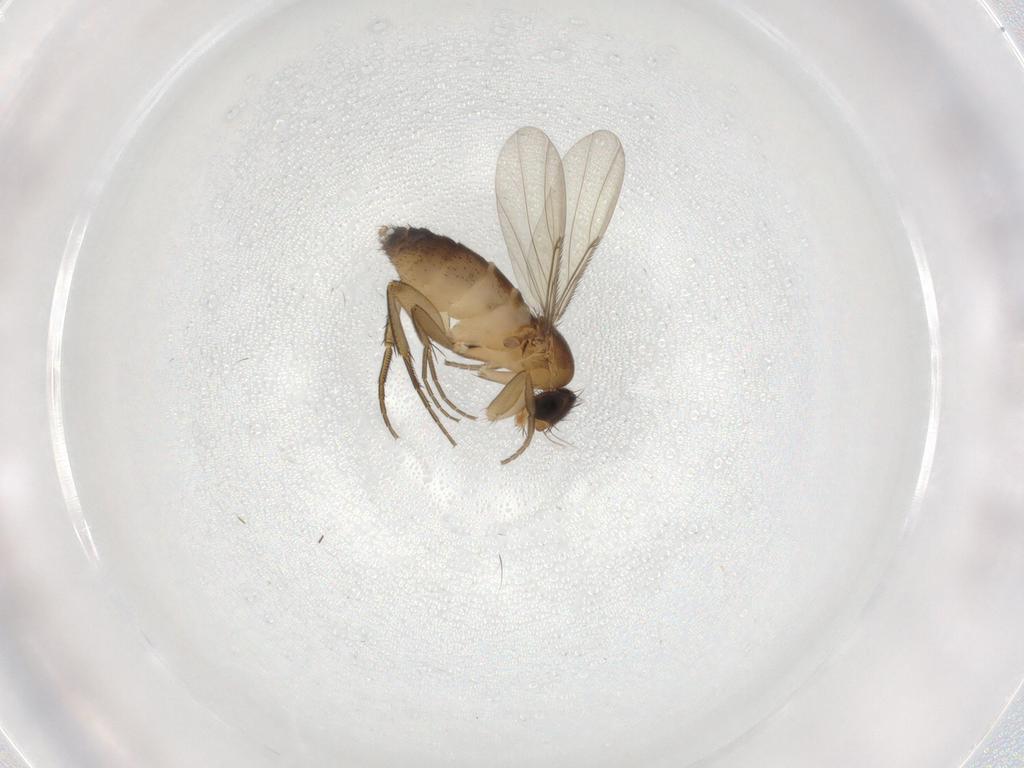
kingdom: Animalia
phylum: Arthropoda
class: Insecta
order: Diptera
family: Phoridae
